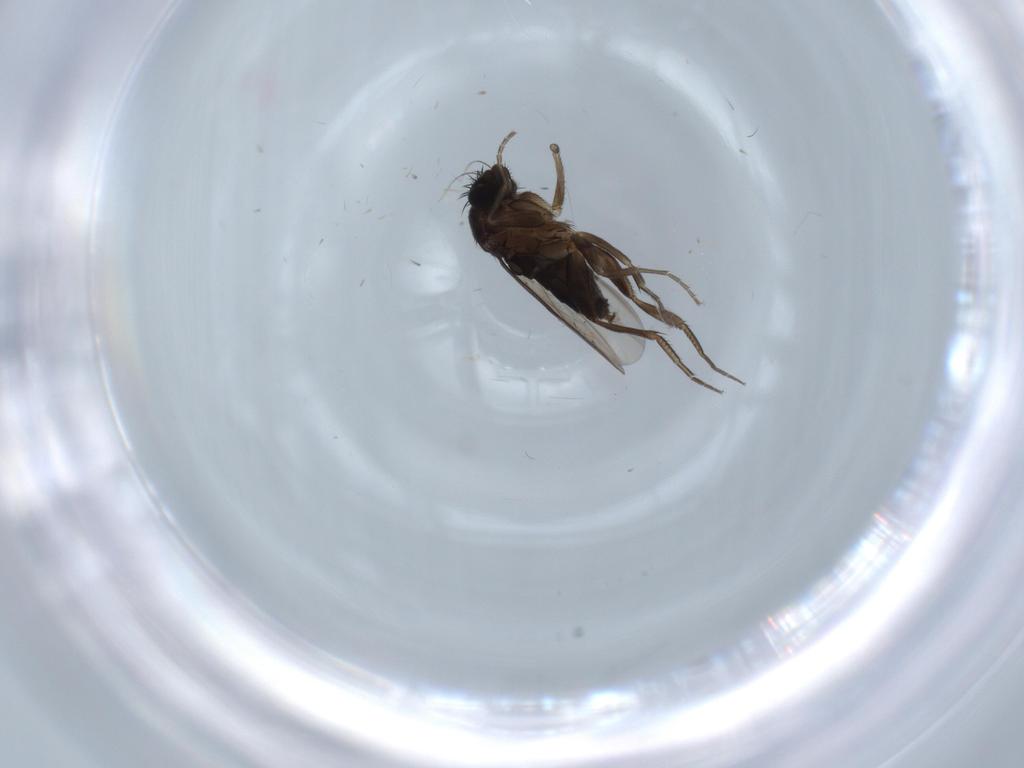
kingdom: Animalia
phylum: Arthropoda
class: Insecta
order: Diptera
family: Phoridae
